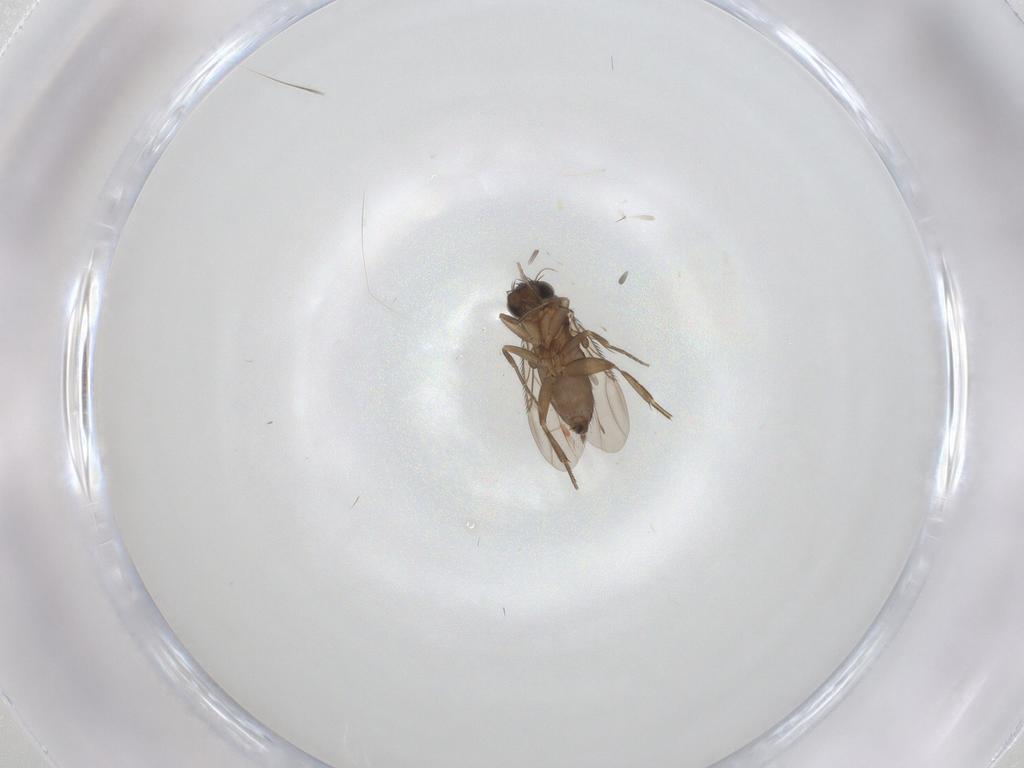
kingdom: Animalia
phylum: Arthropoda
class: Insecta
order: Diptera
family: Phoridae
